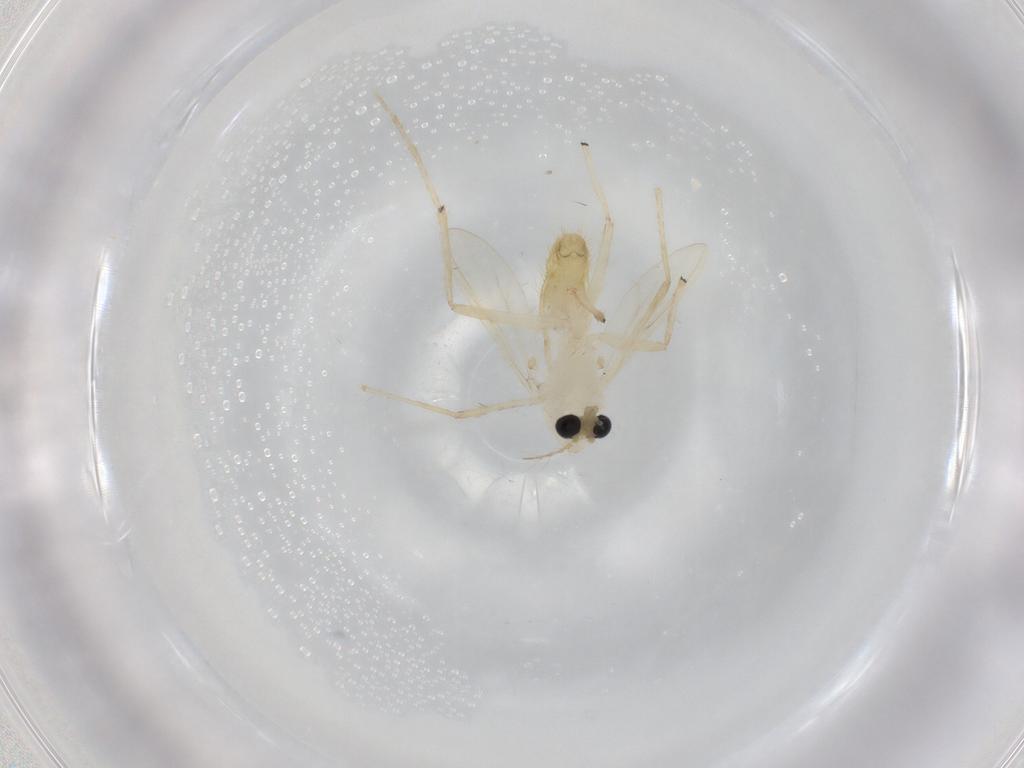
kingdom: Animalia
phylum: Arthropoda
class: Insecta
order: Diptera
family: Chironomidae
